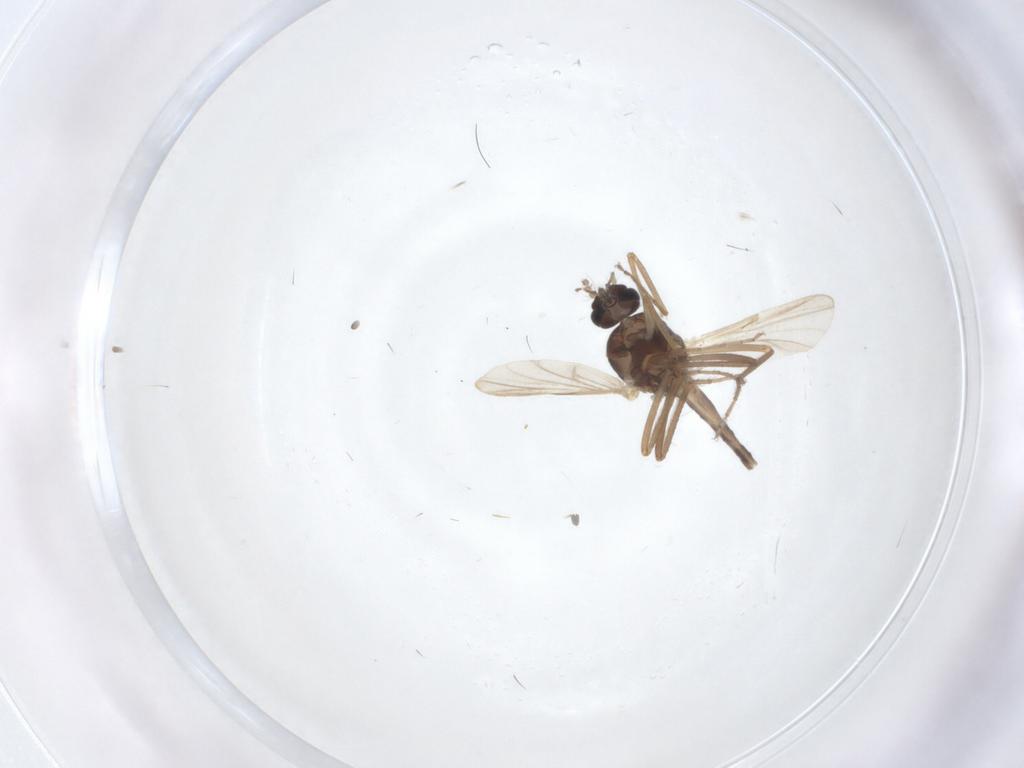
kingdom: Animalia
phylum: Arthropoda
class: Insecta
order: Diptera
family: Ceratopogonidae
